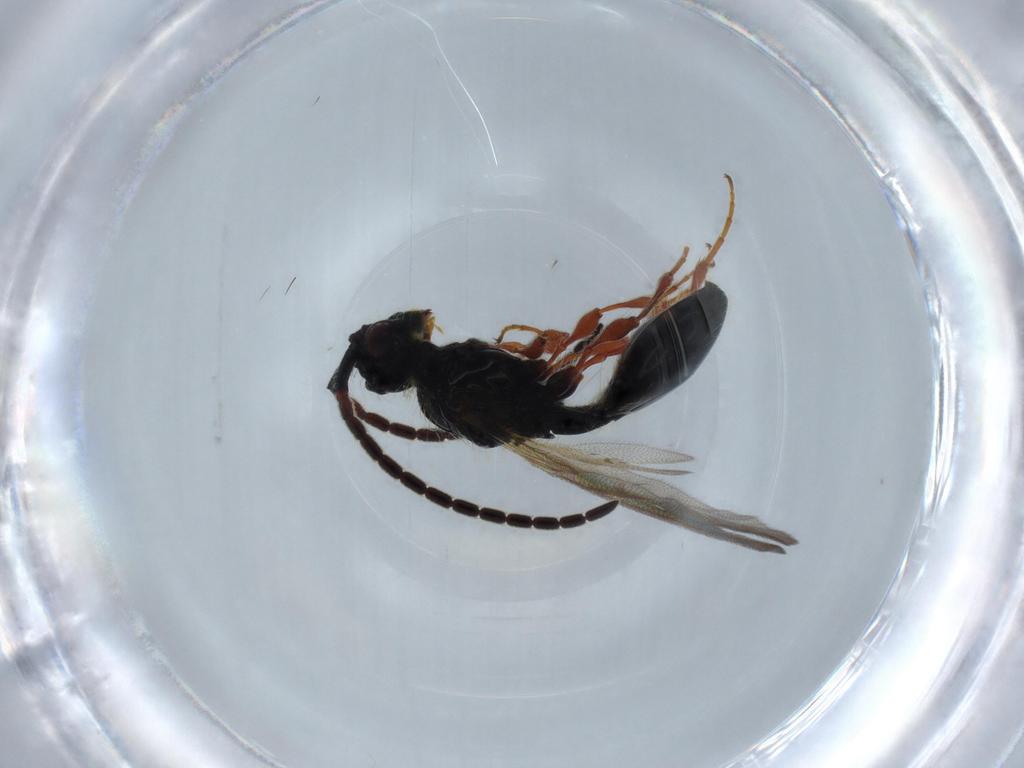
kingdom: Animalia
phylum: Arthropoda
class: Insecta
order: Hymenoptera
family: Diapriidae
